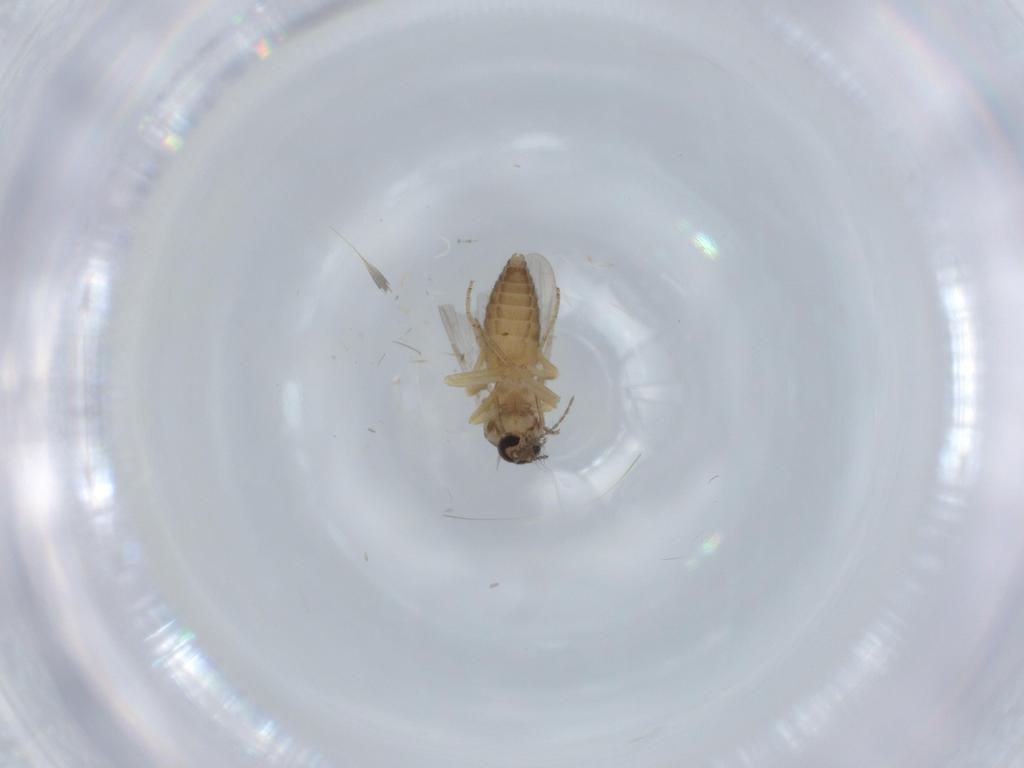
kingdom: Animalia
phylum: Arthropoda
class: Insecta
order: Diptera
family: Ceratopogonidae
